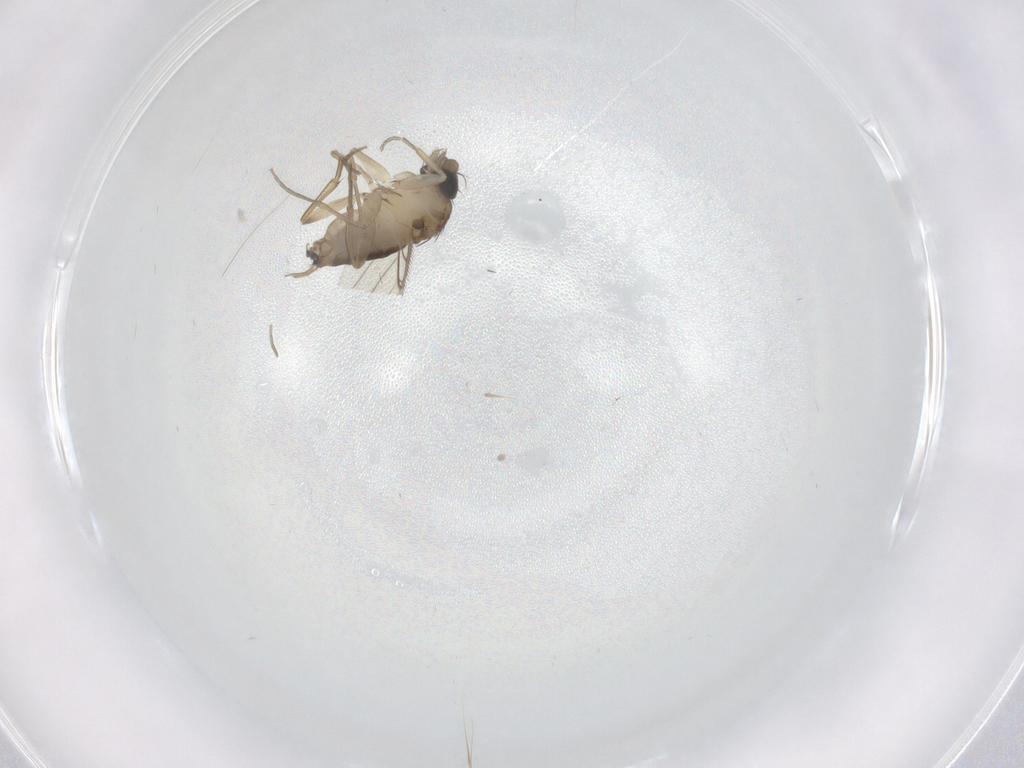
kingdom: Animalia
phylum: Arthropoda
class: Insecta
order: Diptera
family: Phoridae
